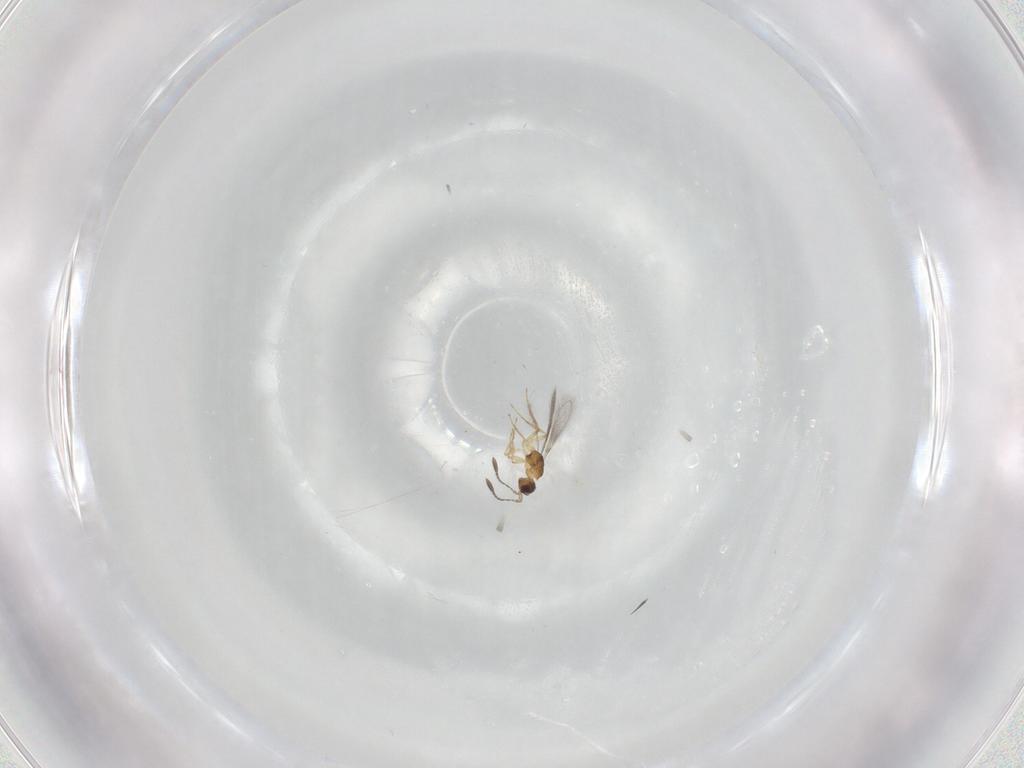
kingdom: Animalia
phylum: Arthropoda
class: Insecta
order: Hymenoptera
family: Mymaridae
